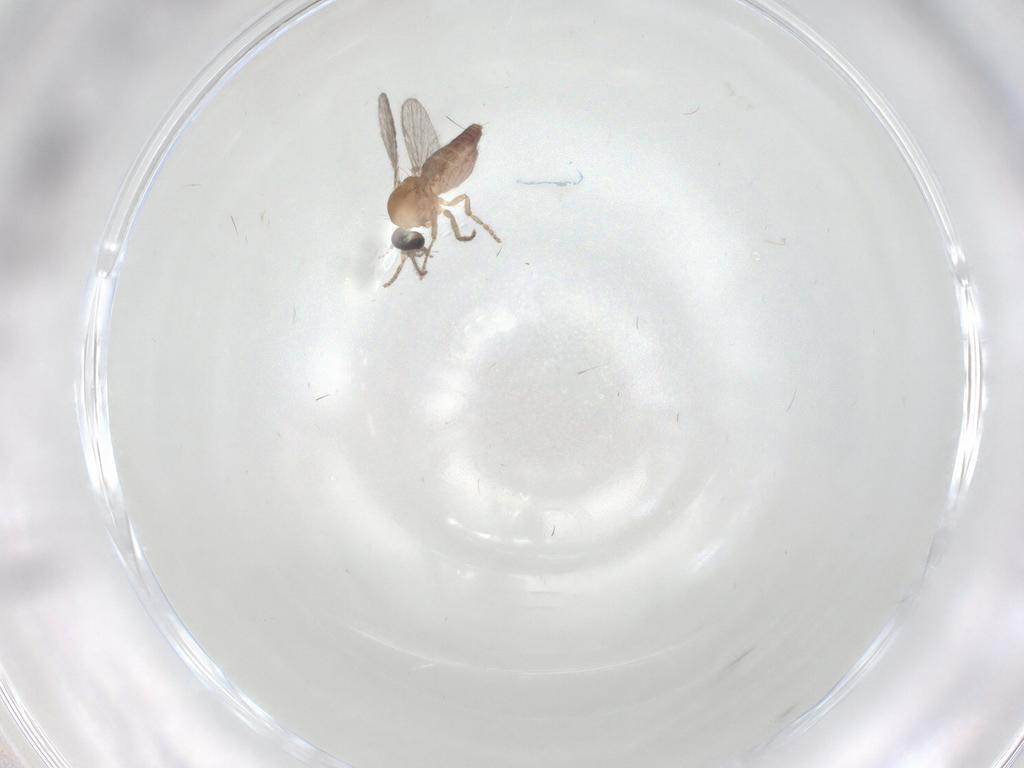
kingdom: Animalia
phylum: Arthropoda
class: Insecta
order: Diptera
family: Ceratopogonidae
